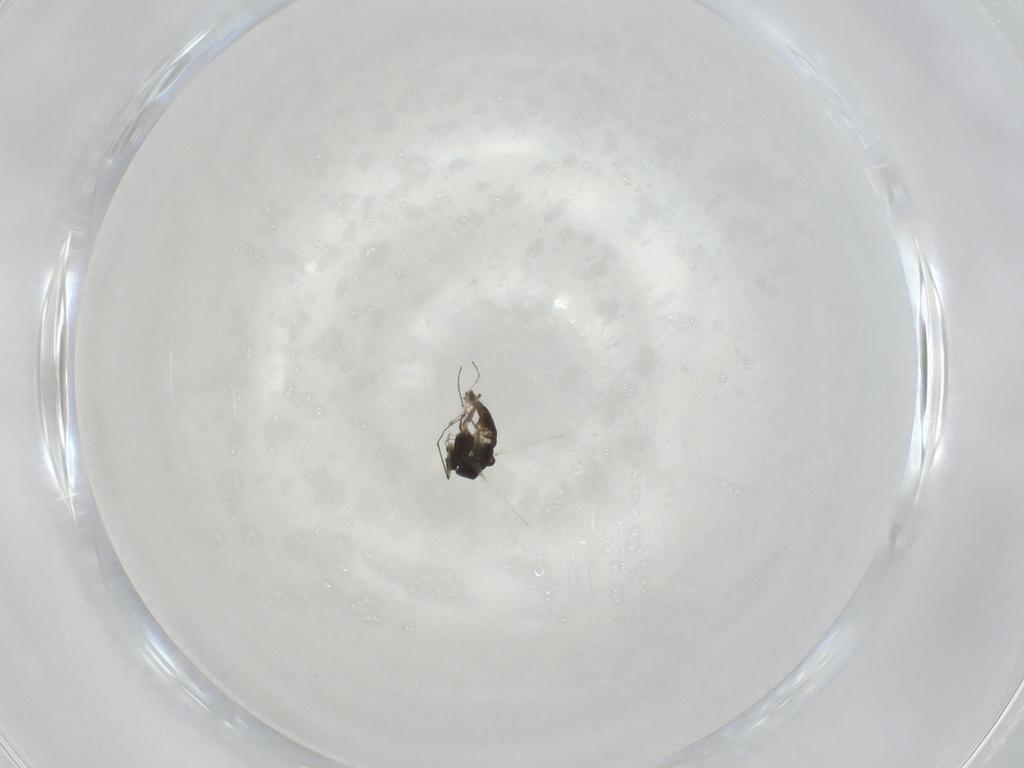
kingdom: Animalia
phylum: Arthropoda
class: Insecta
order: Diptera
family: Chironomidae
